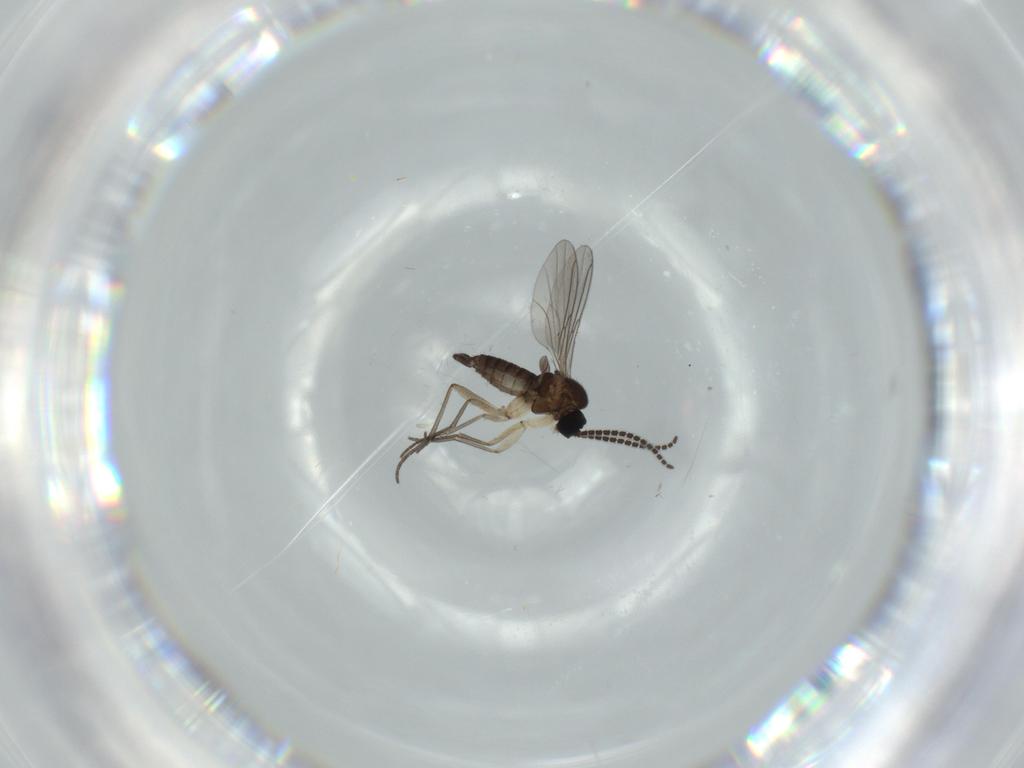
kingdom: Animalia
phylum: Arthropoda
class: Insecta
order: Diptera
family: Sciaridae
